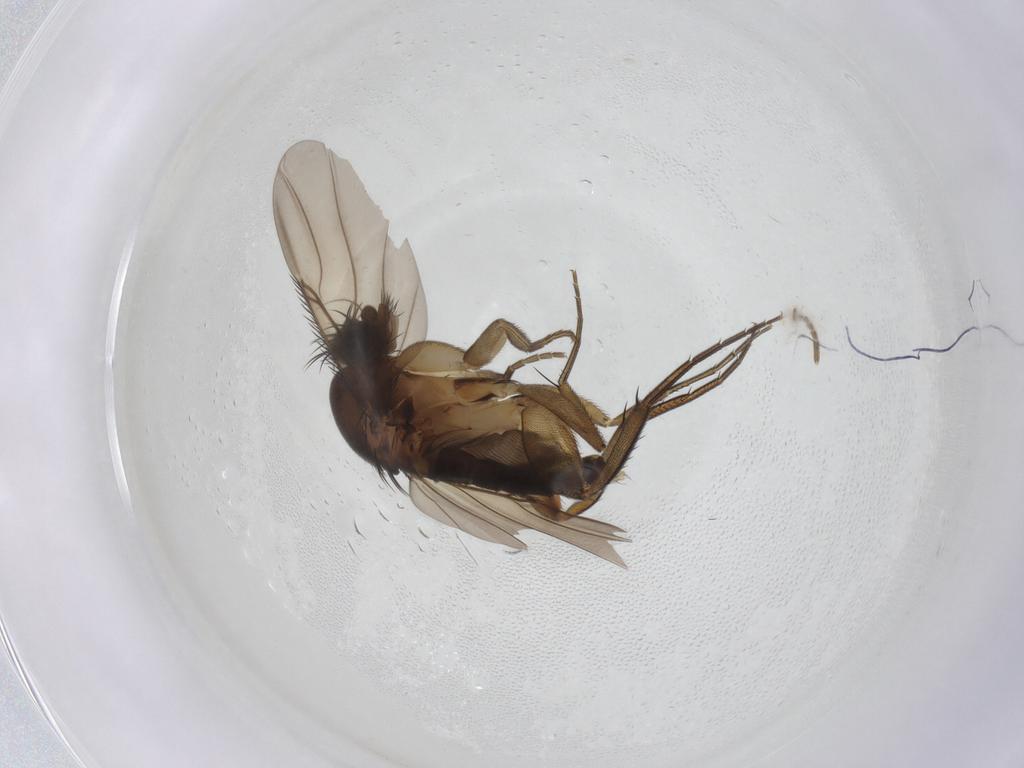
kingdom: Animalia
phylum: Arthropoda
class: Insecta
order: Diptera
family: Phoridae
